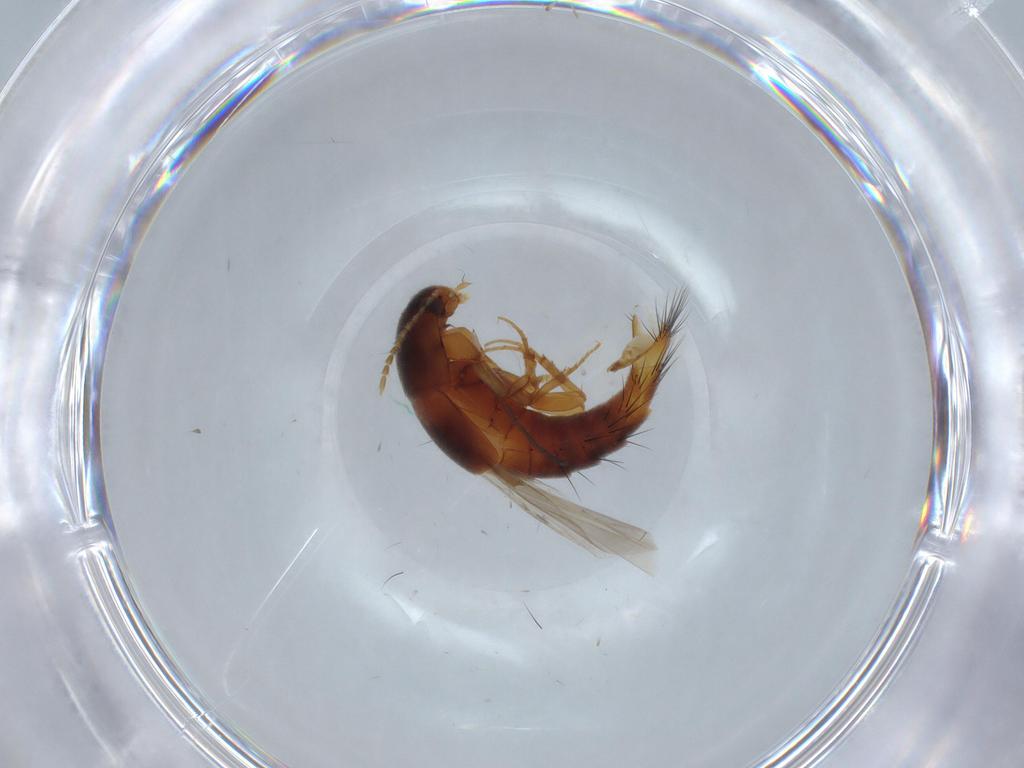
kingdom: Animalia
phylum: Arthropoda
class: Insecta
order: Coleoptera
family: Staphylinidae
